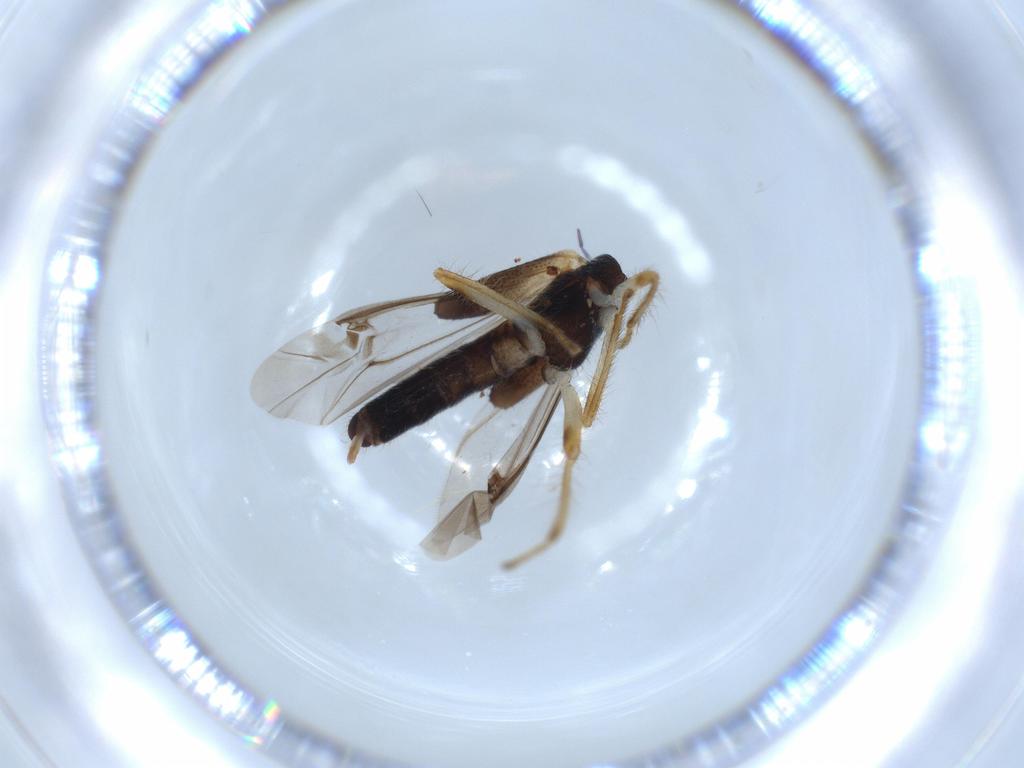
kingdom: Animalia
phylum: Arthropoda
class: Insecta
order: Coleoptera
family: Cleridae
